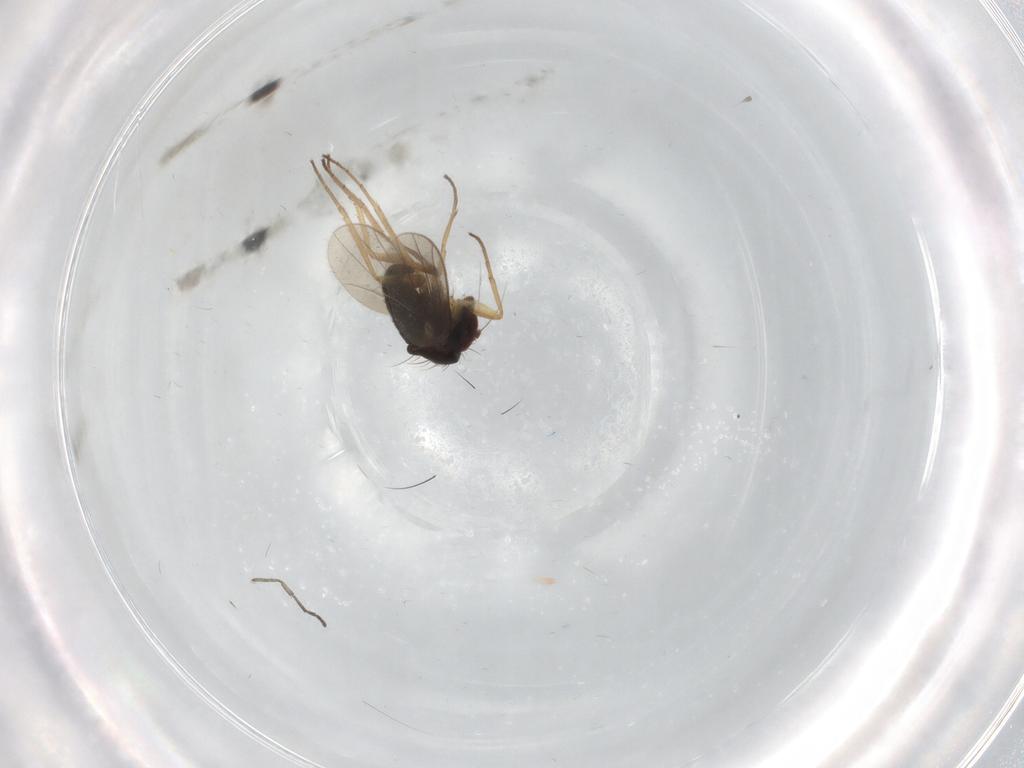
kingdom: Animalia
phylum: Arthropoda
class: Insecta
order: Diptera
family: Sciaridae
